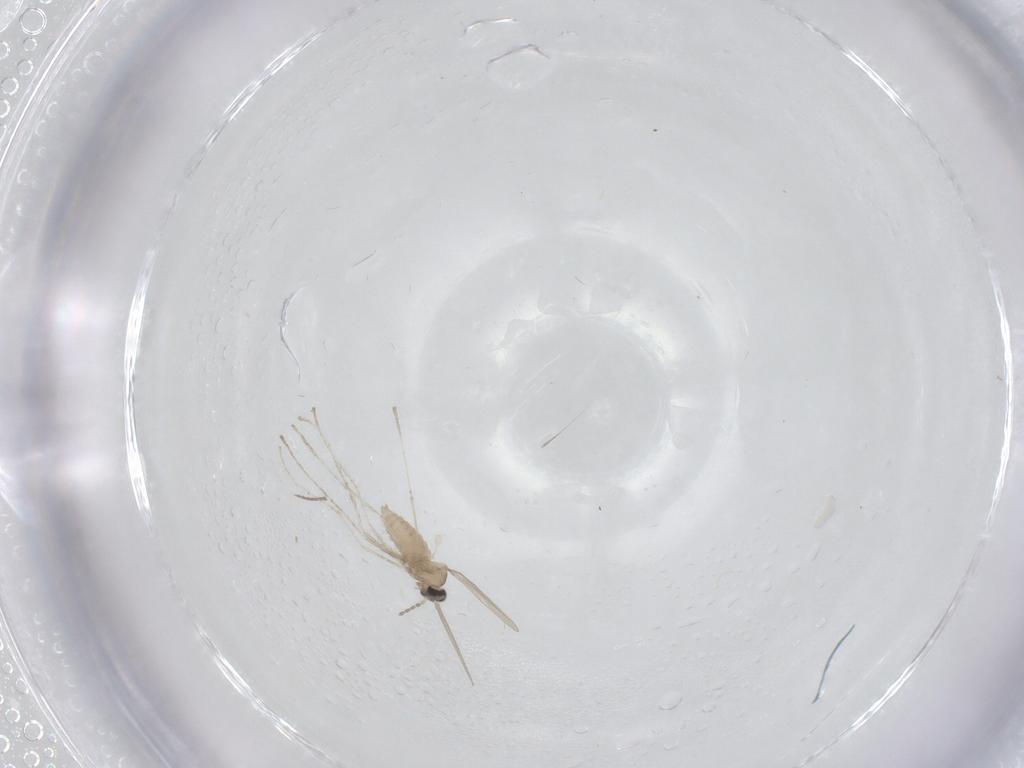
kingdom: Animalia
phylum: Arthropoda
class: Insecta
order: Diptera
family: Cecidomyiidae
